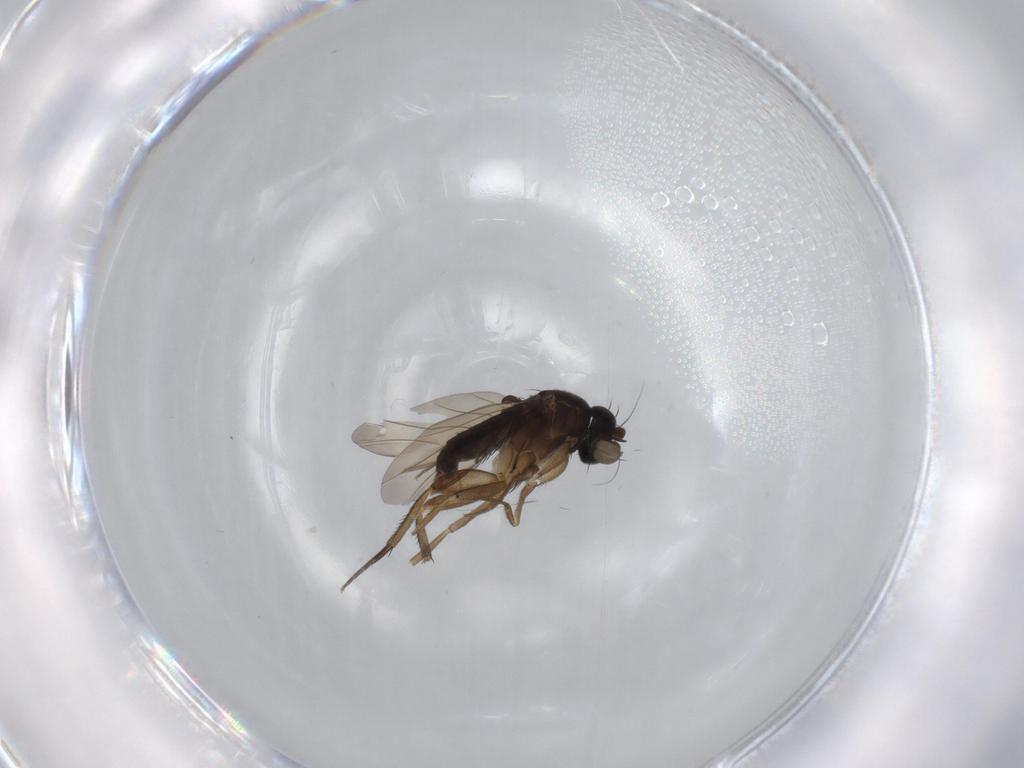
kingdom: Animalia
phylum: Arthropoda
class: Insecta
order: Diptera
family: Phoridae
